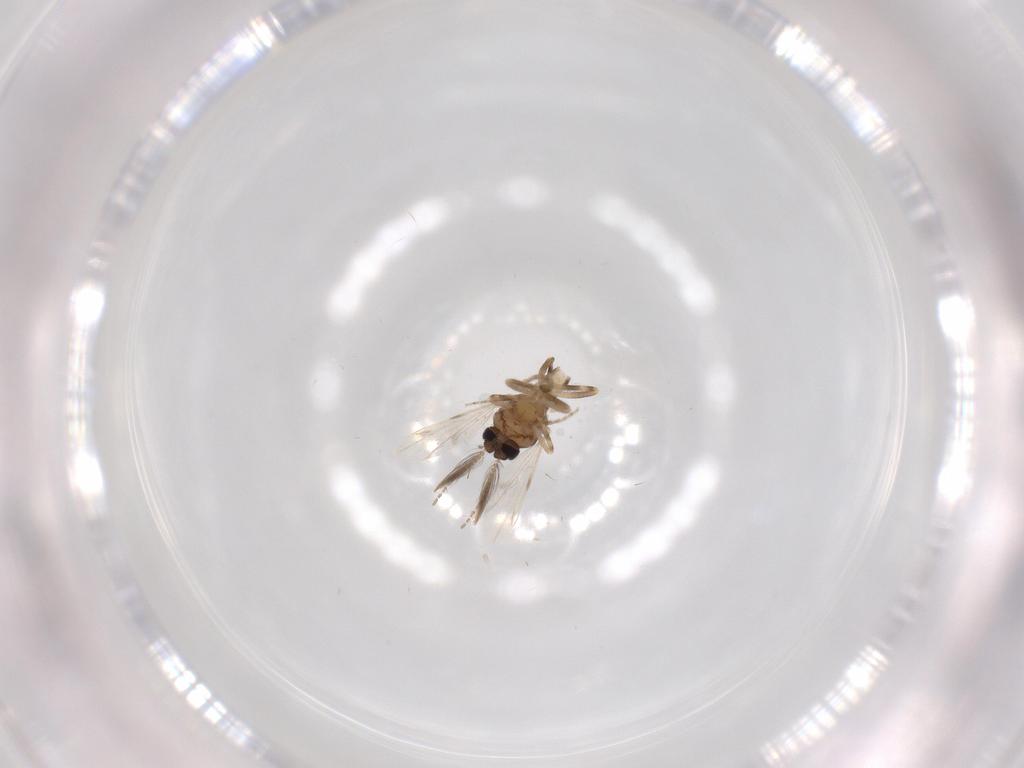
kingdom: Animalia
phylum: Arthropoda
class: Insecta
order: Diptera
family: Ceratopogonidae
